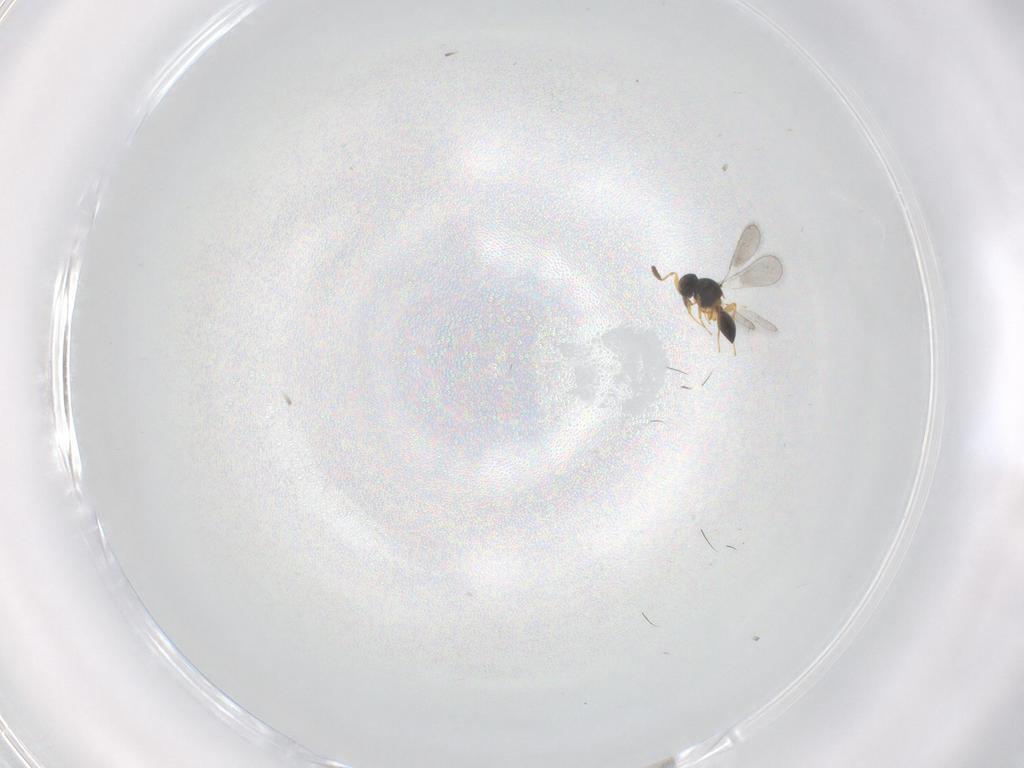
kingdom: Animalia
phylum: Arthropoda
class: Insecta
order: Hymenoptera
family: Platygastridae
